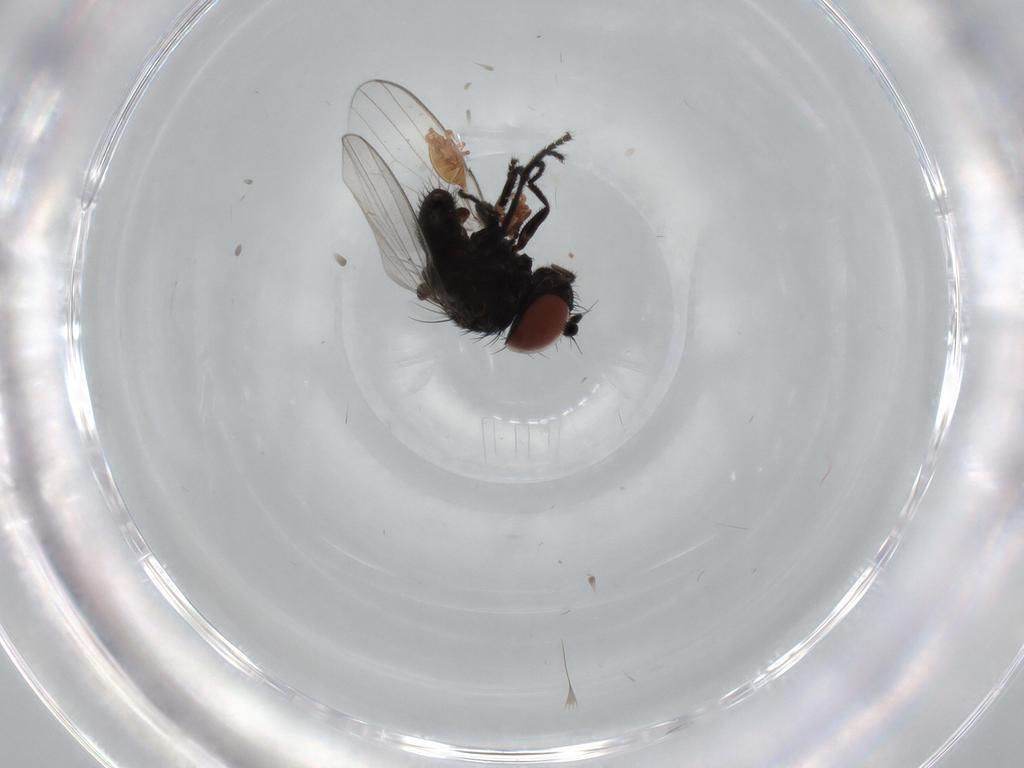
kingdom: Animalia
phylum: Arthropoda
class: Insecta
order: Diptera
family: Milichiidae
